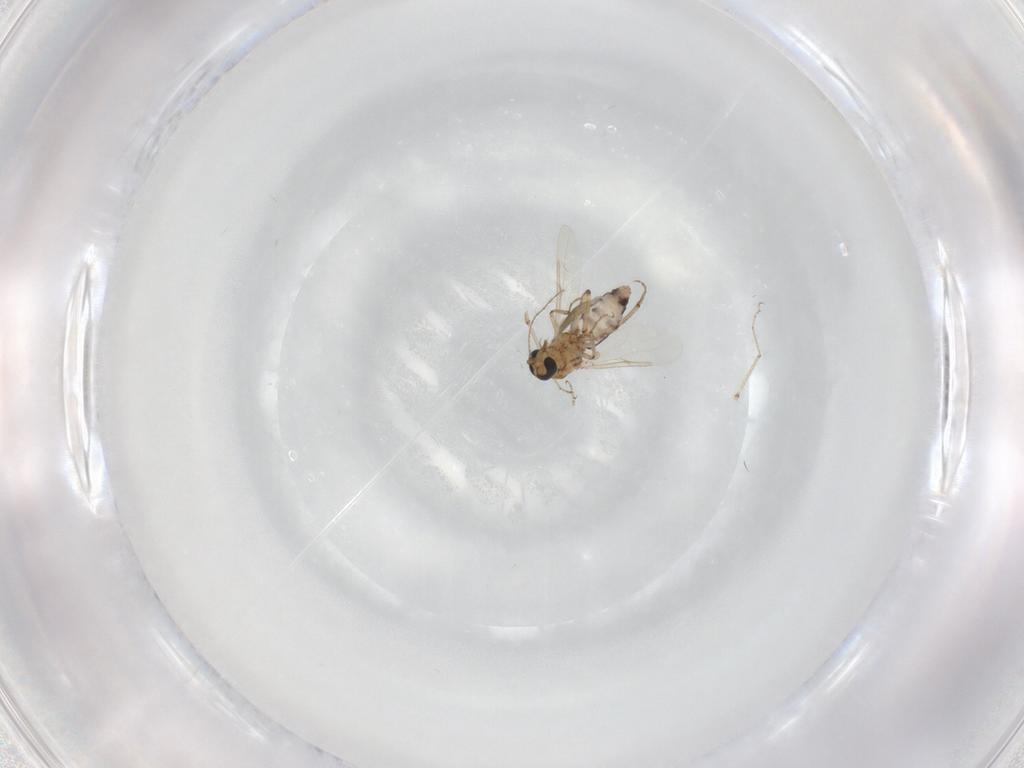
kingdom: Animalia
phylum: Arthropoda
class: Insecta
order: Diptera
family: Ceratopogonidae
